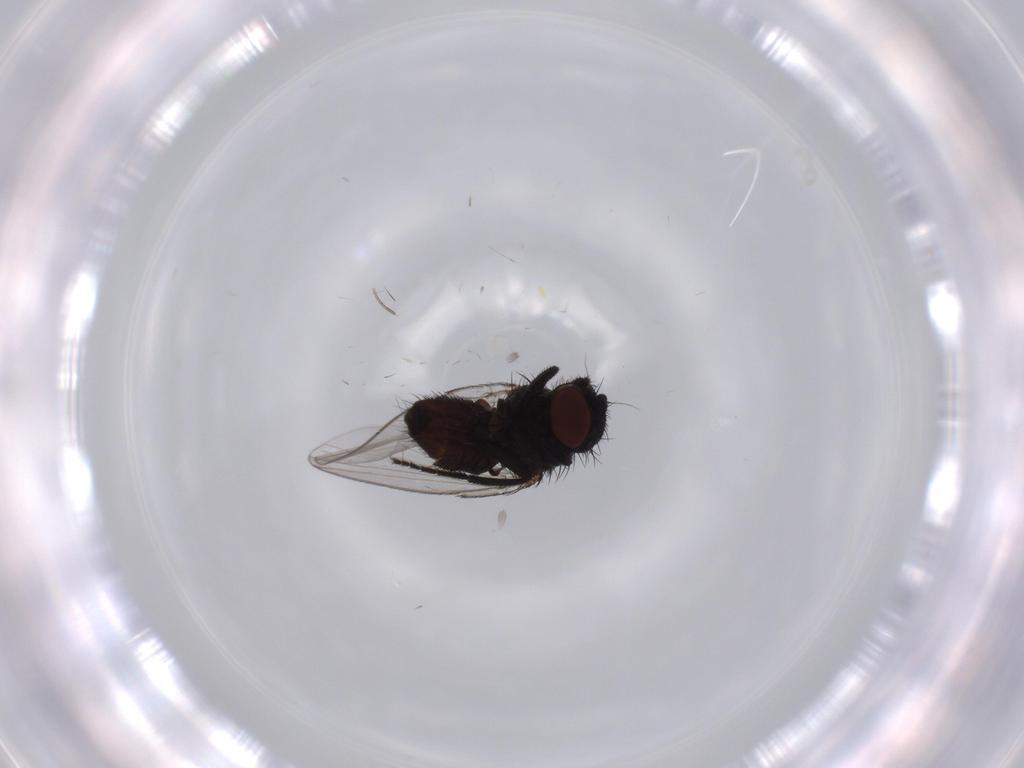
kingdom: Animalia
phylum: Arthropoda
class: Insecta
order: Diptera
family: Milichiidae
